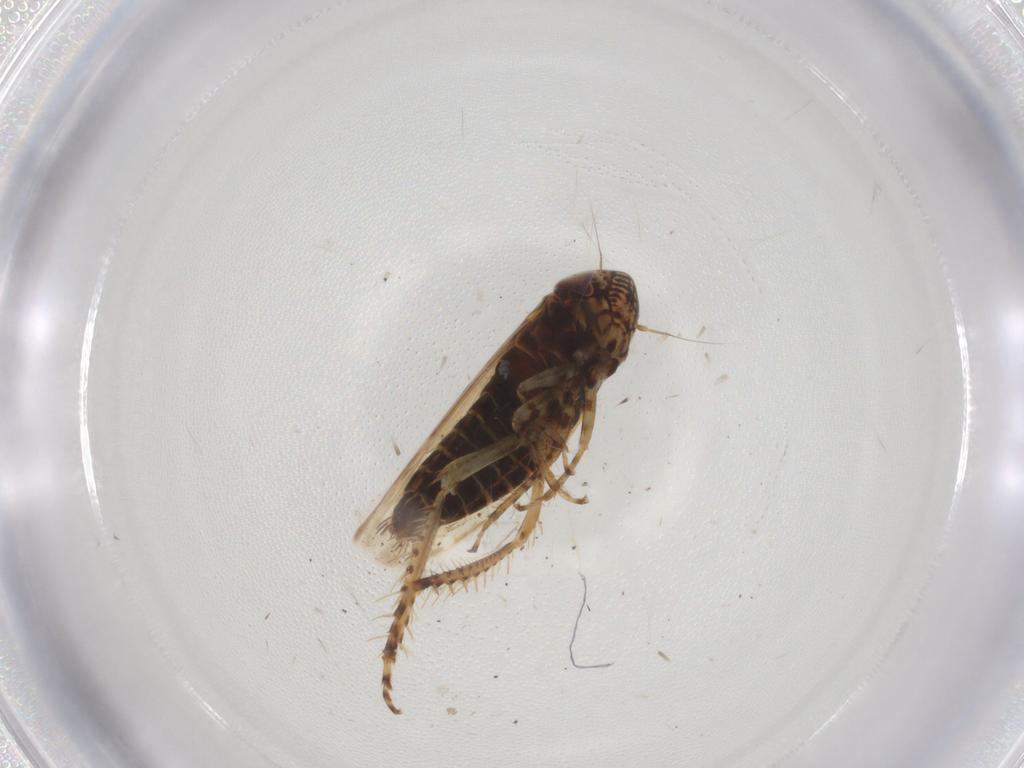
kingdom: Animalia
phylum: Arthropoda
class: Insecta
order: Hemiptera
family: Cicadellidae
